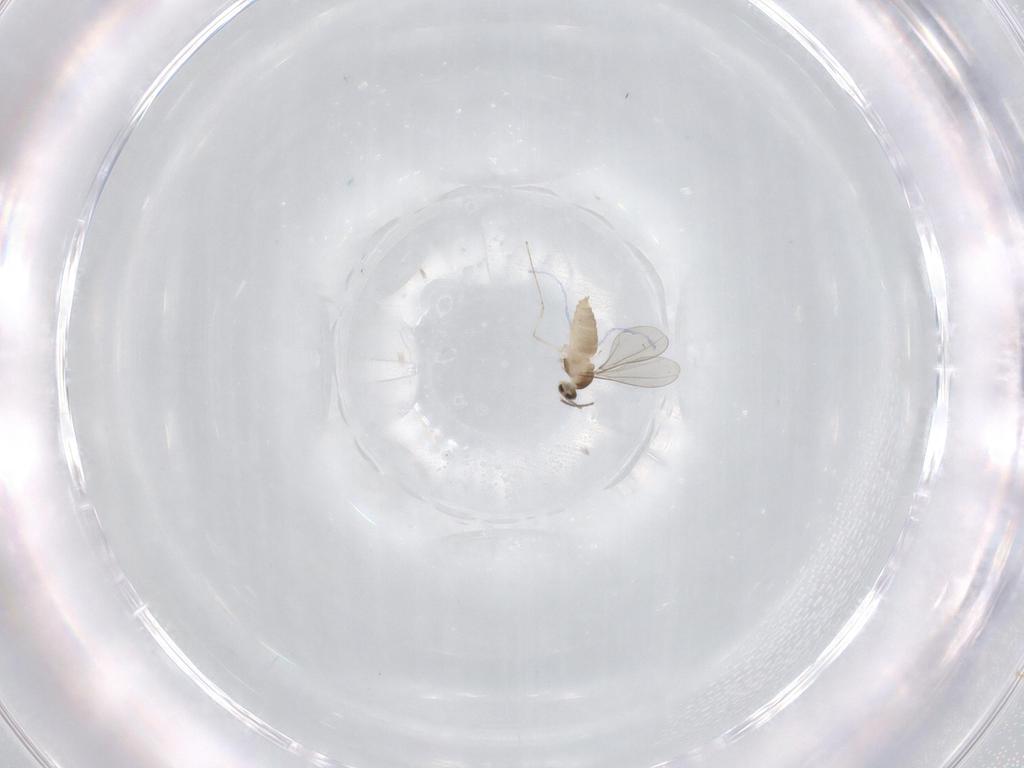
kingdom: Animalia
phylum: Arthropoda
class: Insecta
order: Diptera
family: Cecidomyiidae
